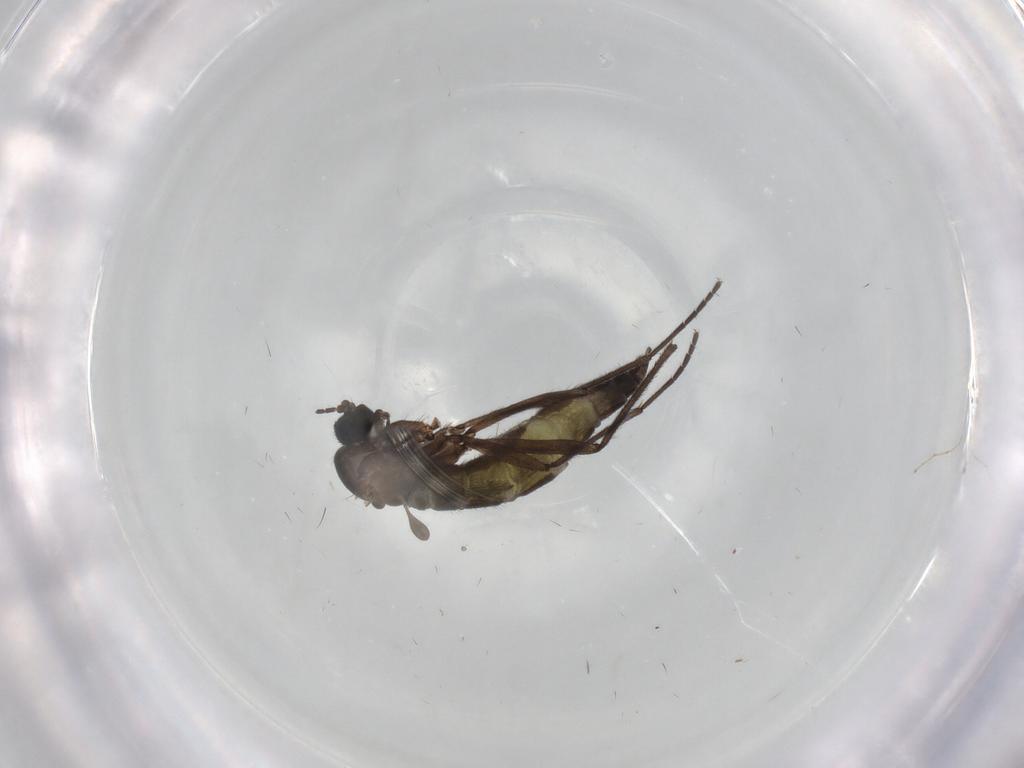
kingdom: Animalia
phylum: Arthropoda
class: Insecta
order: Diptera
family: Cecidomyiidae
